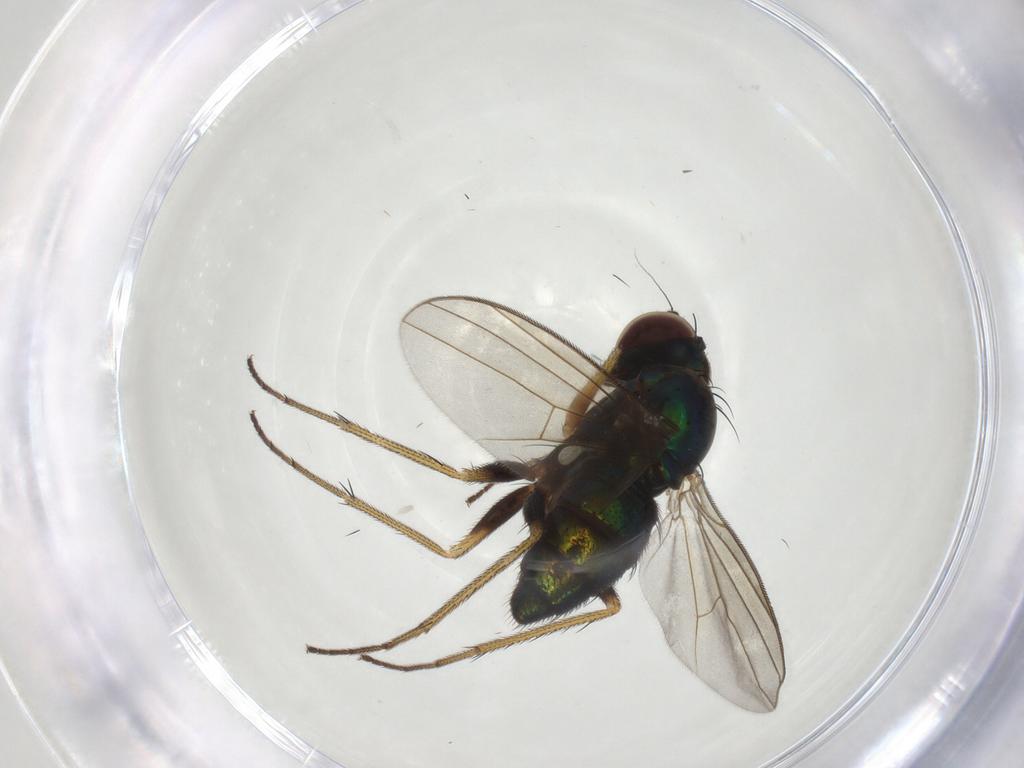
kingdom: Animalia
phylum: Arthropoda
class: Insecta
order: Diptera
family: Dolichopodidae
